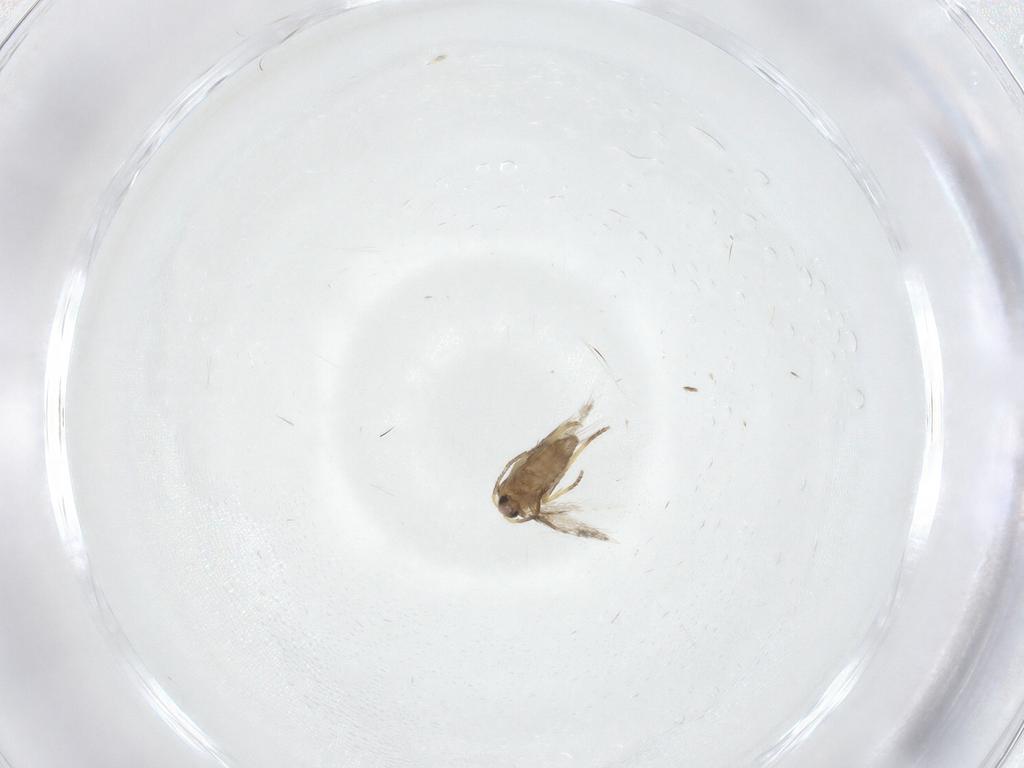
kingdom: Animalia
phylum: Arthropoda
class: Insecta
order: Lepidoptera
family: Nepticulidae
